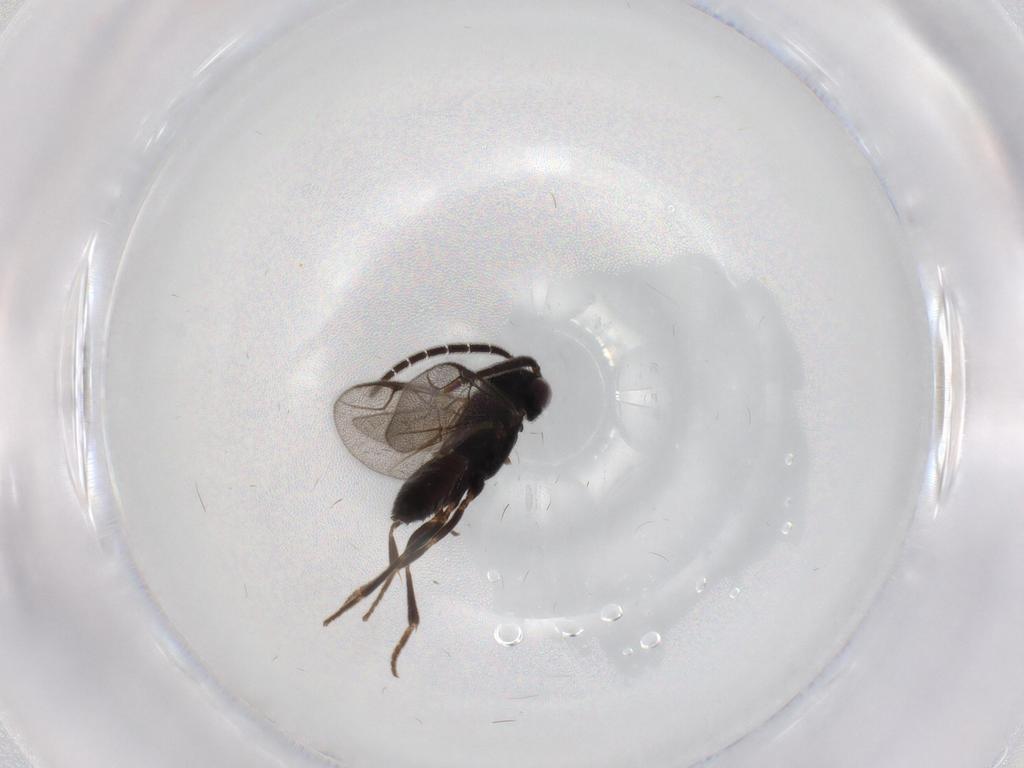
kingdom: Animalia
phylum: Arthropoda
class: Insecta
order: Hymenoptera
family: Dryinidae
